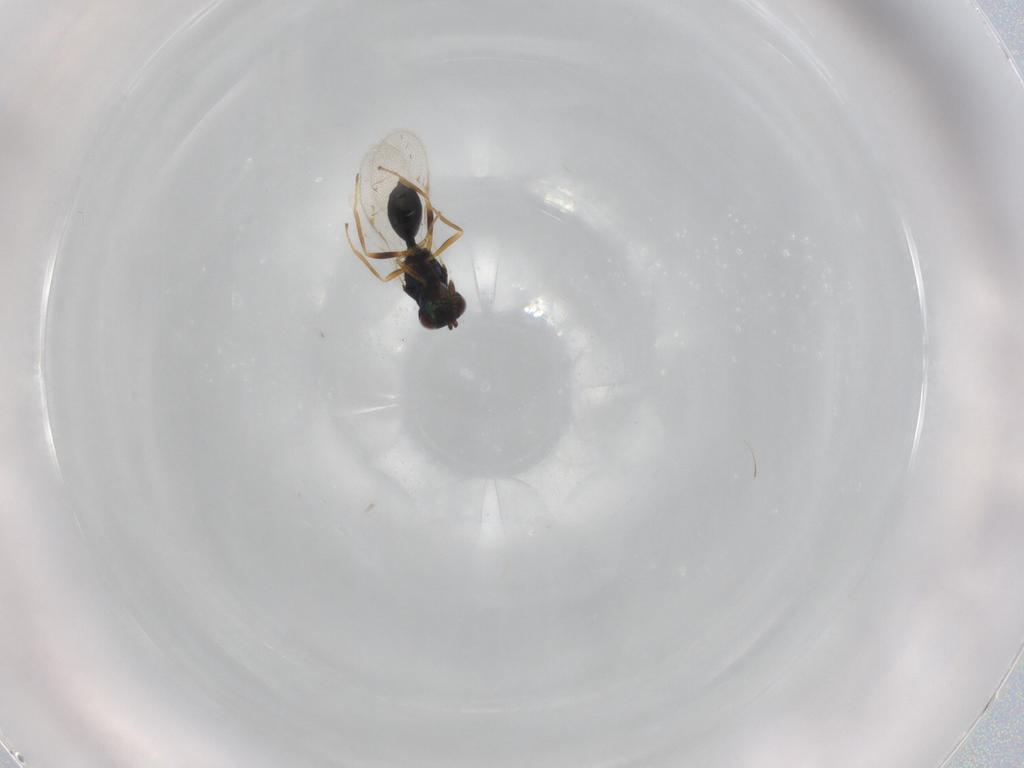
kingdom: Animalia
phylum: Arthropoda
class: Insecta
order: Hymenoptera
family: Chalcidoidea_incertae_sedis
